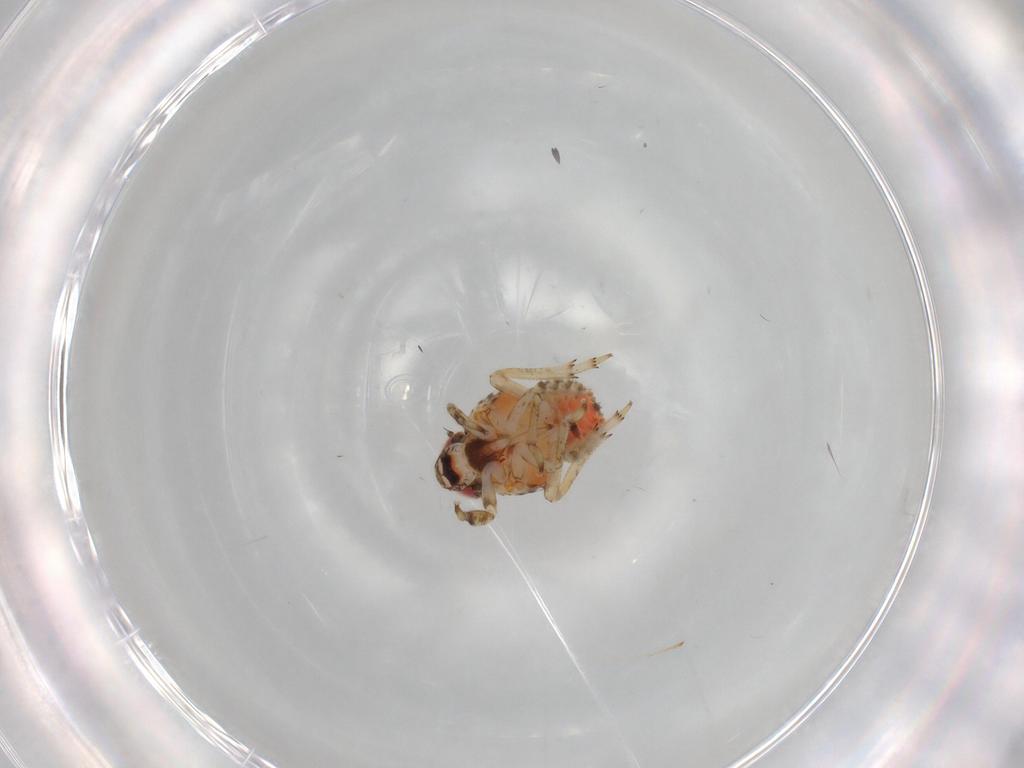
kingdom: Animalia
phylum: Arthropoda
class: Insecta
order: Hemiptera
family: Issidae
